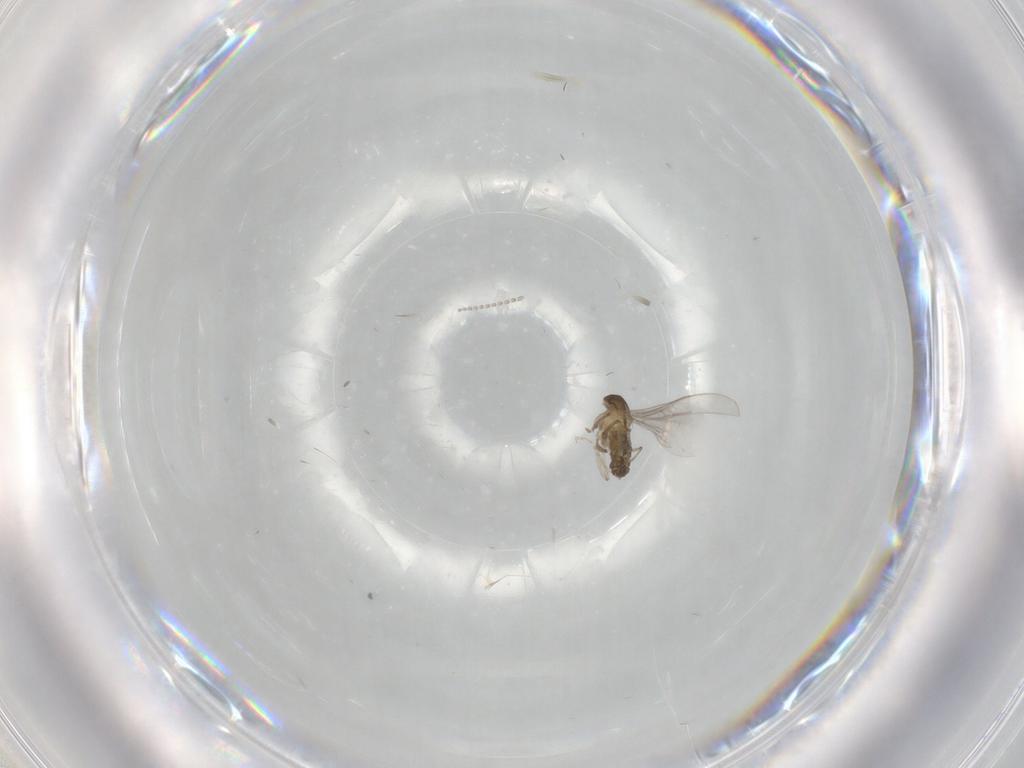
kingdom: Animalia
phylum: Arthropoda
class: Insecta
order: Diptera
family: Cecidomyiidae
